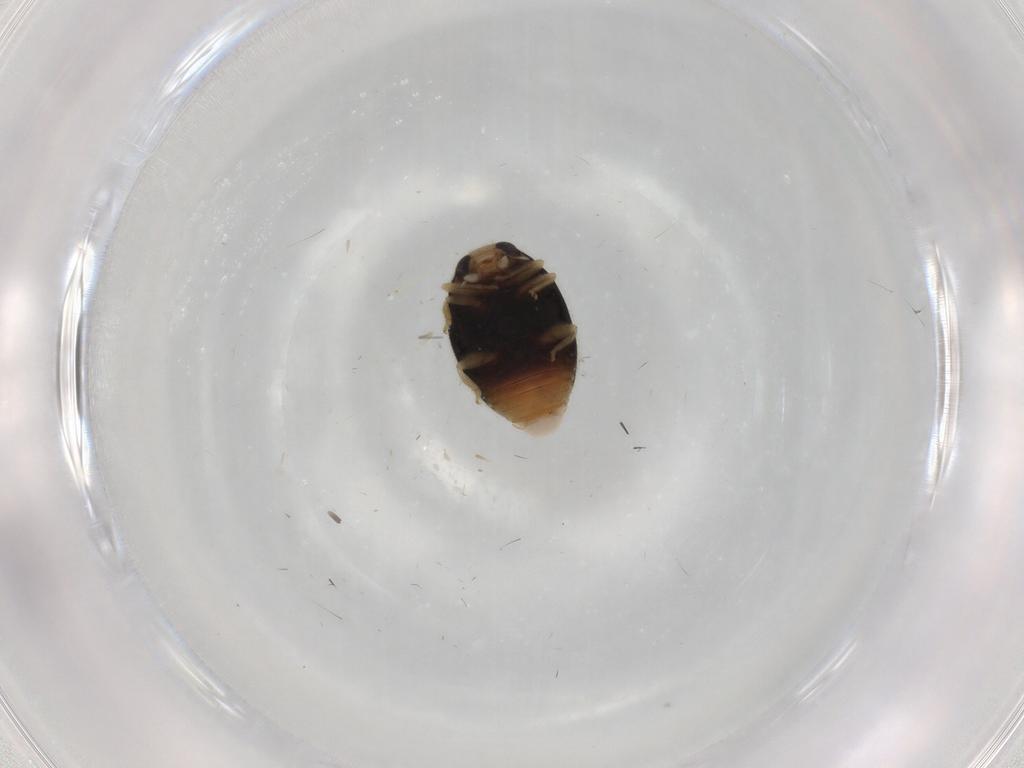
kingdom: Animalia
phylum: Arthropoda
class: Insecta
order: Coleoptera
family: Coccinellidae
